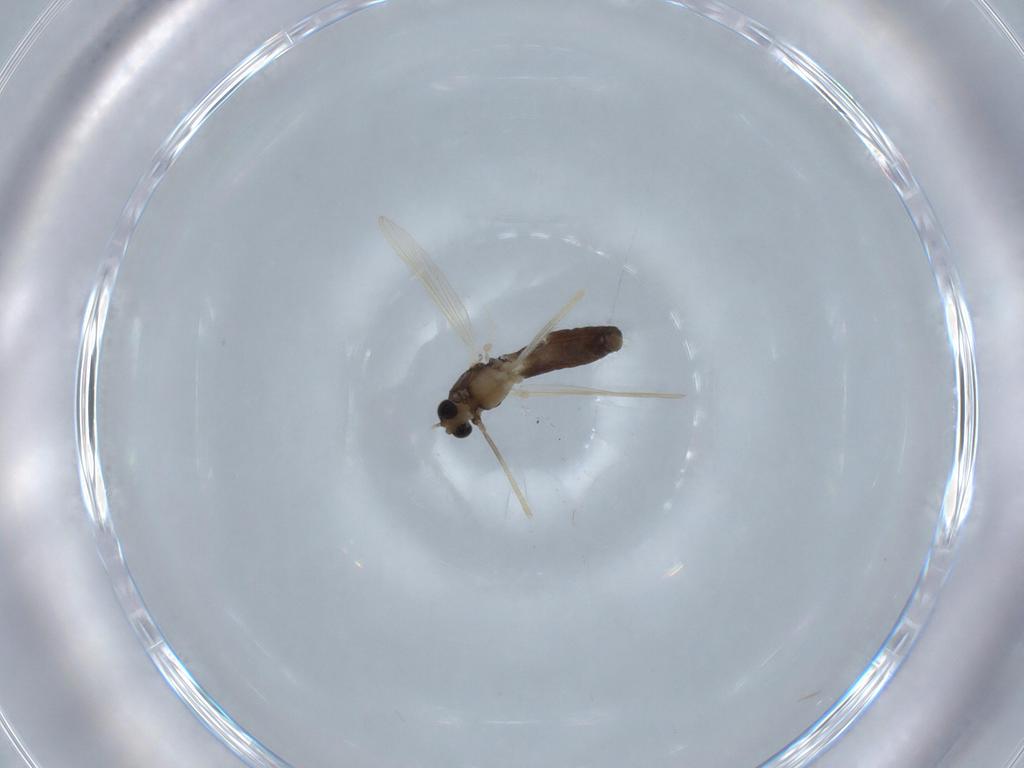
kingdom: Animalia
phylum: Arthropoda
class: Insecta
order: Diptera
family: Chironomidae
